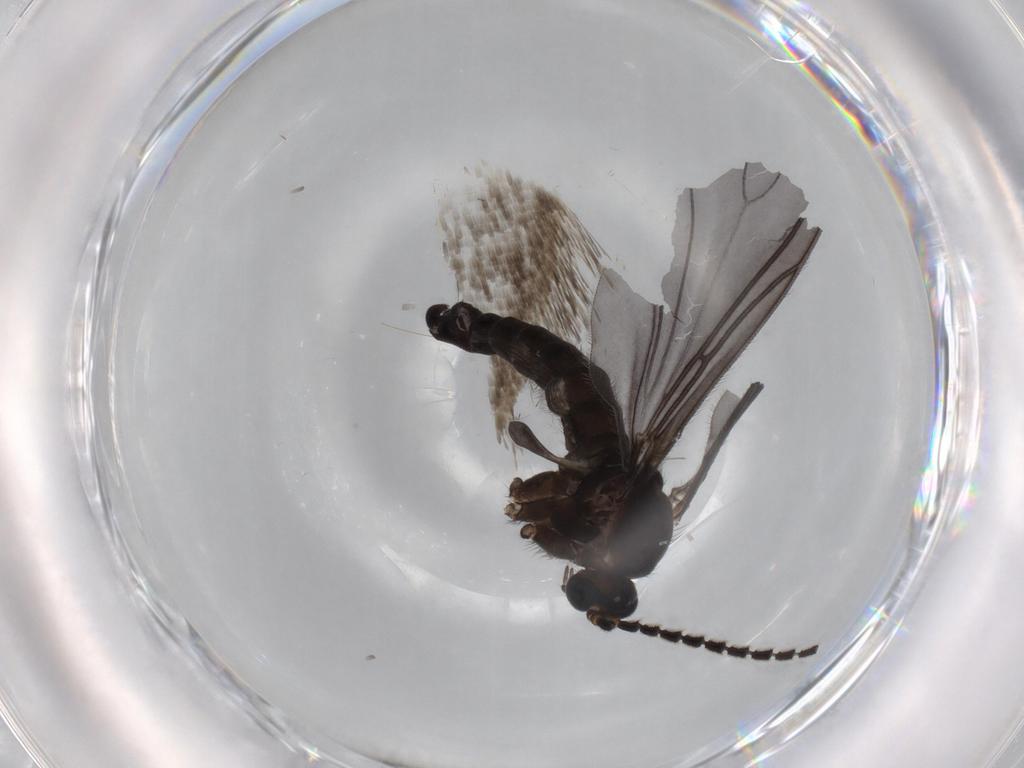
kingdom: Animalia
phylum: Arthropoda
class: Insecta
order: Diptera
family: Sciaridae
